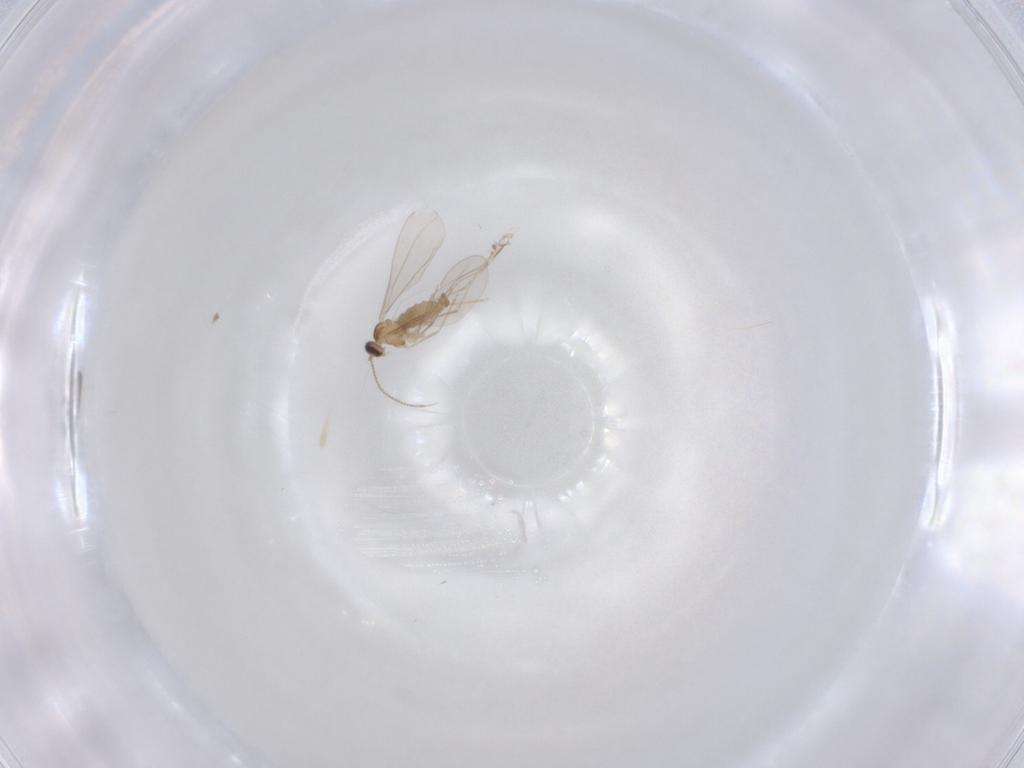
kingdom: Animalia
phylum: Arthropoda
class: Insecta
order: Diptera
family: Cecidomyiidae
